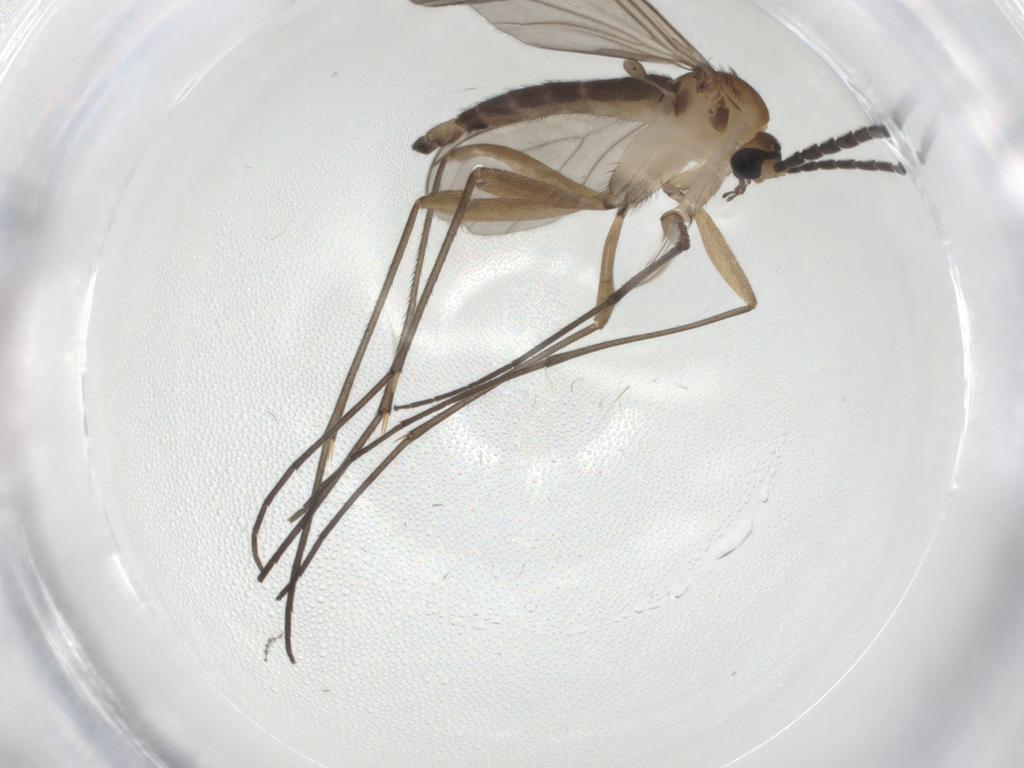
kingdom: Animalia
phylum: Arthropoda
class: Insecta
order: Diptera
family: Sciaridae
